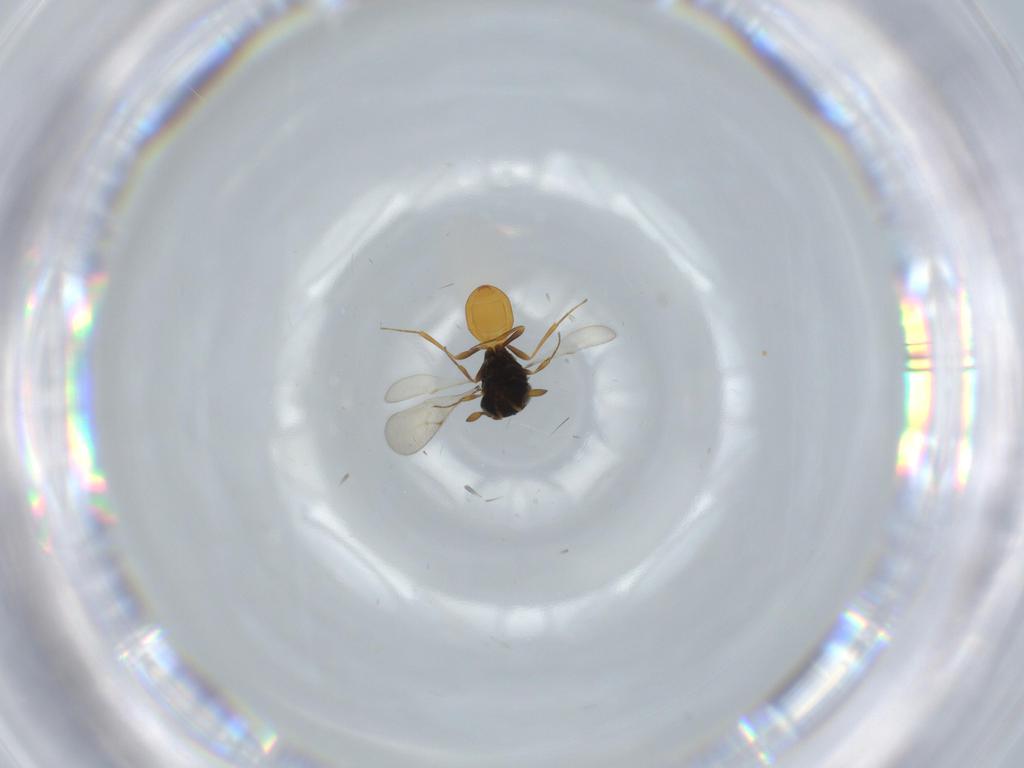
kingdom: Animalia
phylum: Arthropoda
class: Insecta
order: Hymenoptera
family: Scelionidae
